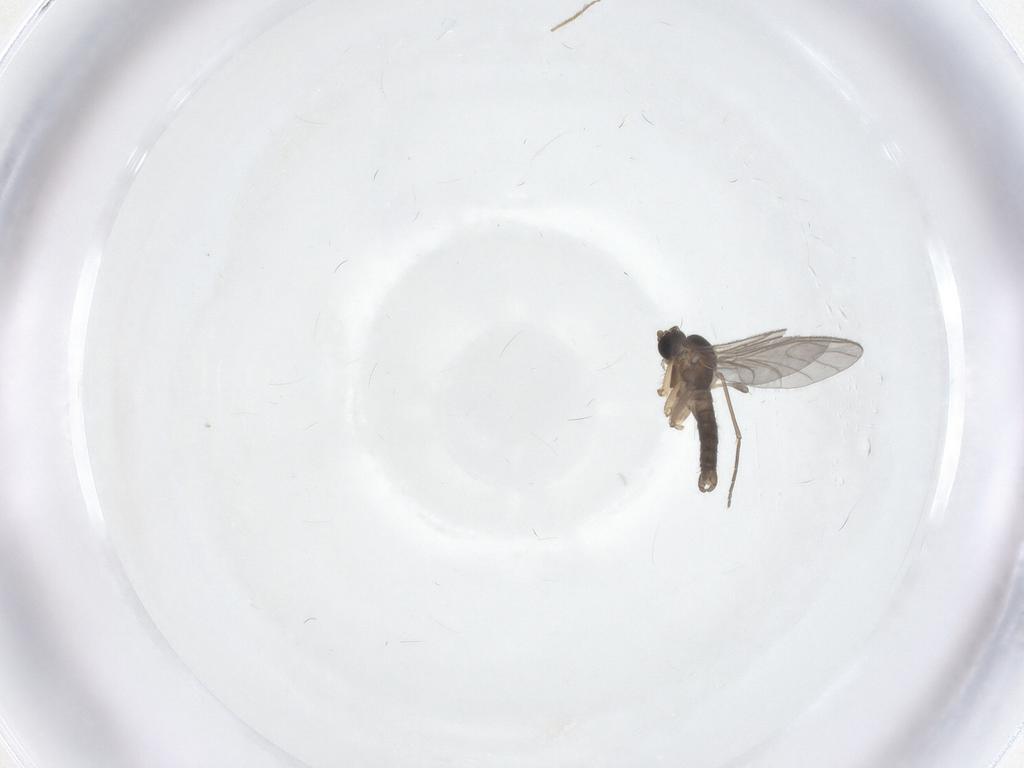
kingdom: Animalia
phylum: Arthropoda
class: Insecta
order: Diptera
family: Sciaridae
